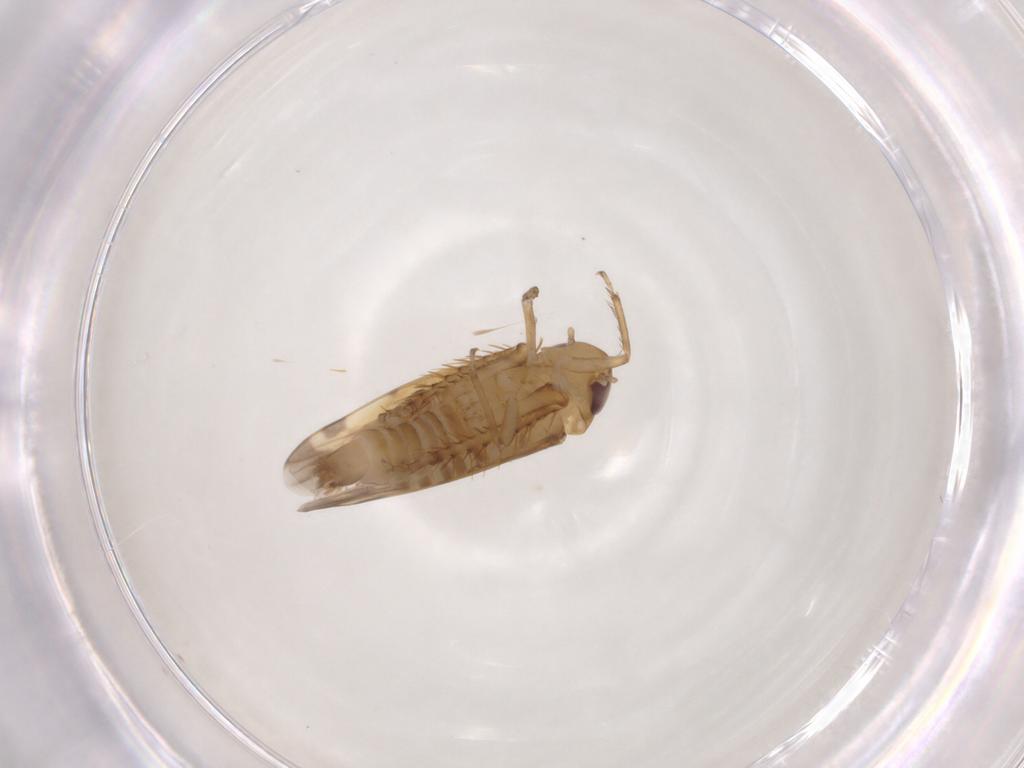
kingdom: Animalia
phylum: Arthropoda
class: Insecta
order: Hemiptera
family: Cicadellidae
